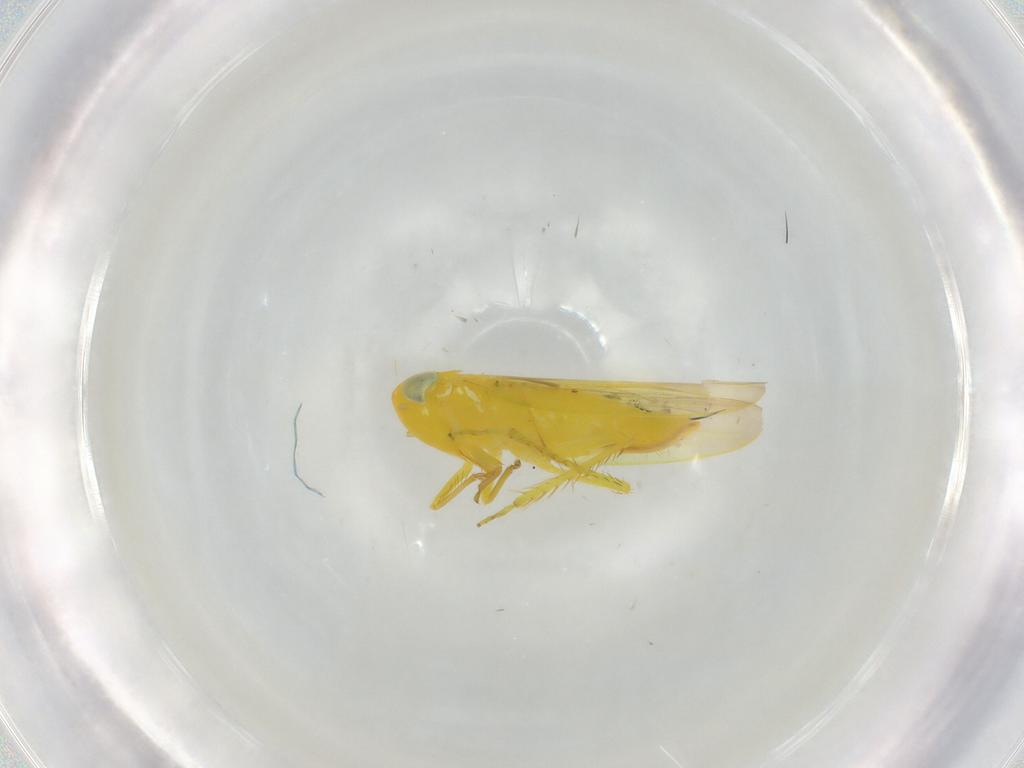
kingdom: Animalia
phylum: Arthropoda
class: Insecta
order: Hemiptera
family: Cicadellidae
